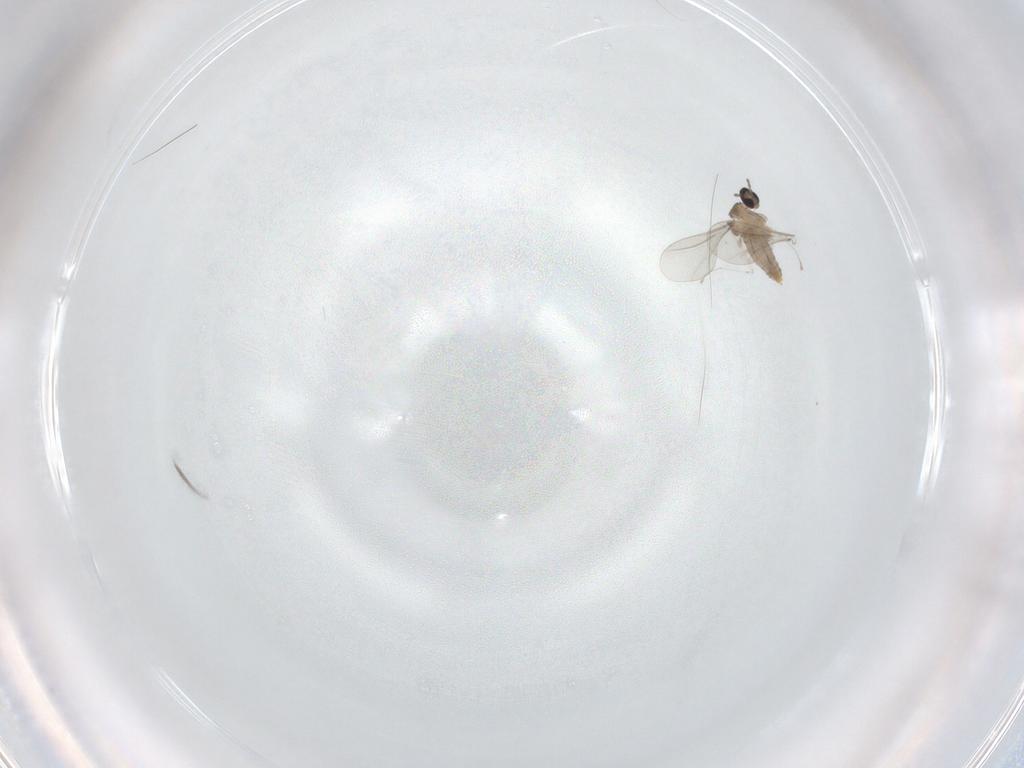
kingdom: Animalia
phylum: Arthropoda
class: Insecta
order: Diptera
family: Cecidomyiidae
